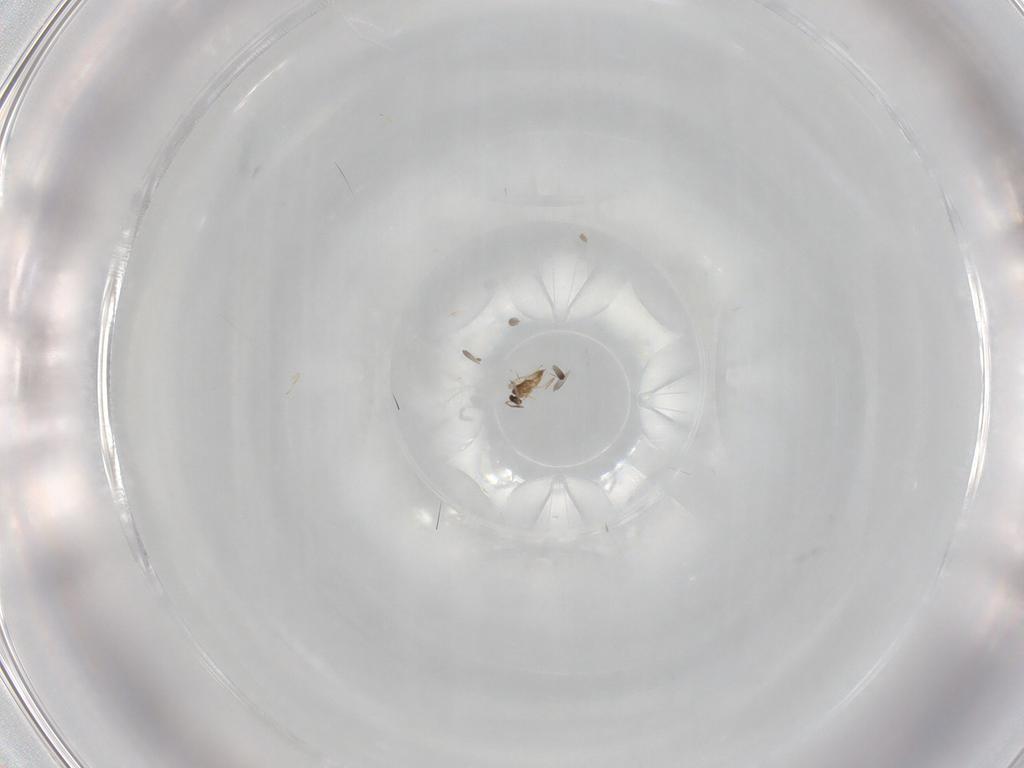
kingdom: Animalia
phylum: Arthropoda
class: Insecta
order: Hymenoptera
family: Mymaridae
